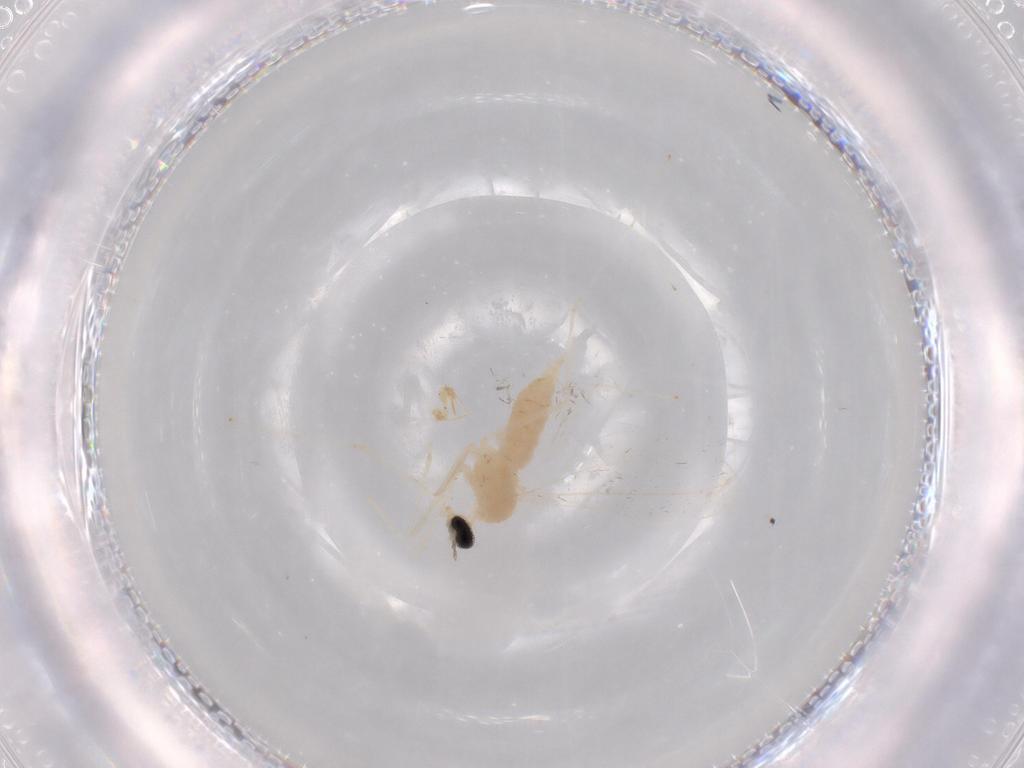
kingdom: Animalia
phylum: Arthropoda
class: Insecta
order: Diptera
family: Cecidomyiidae
